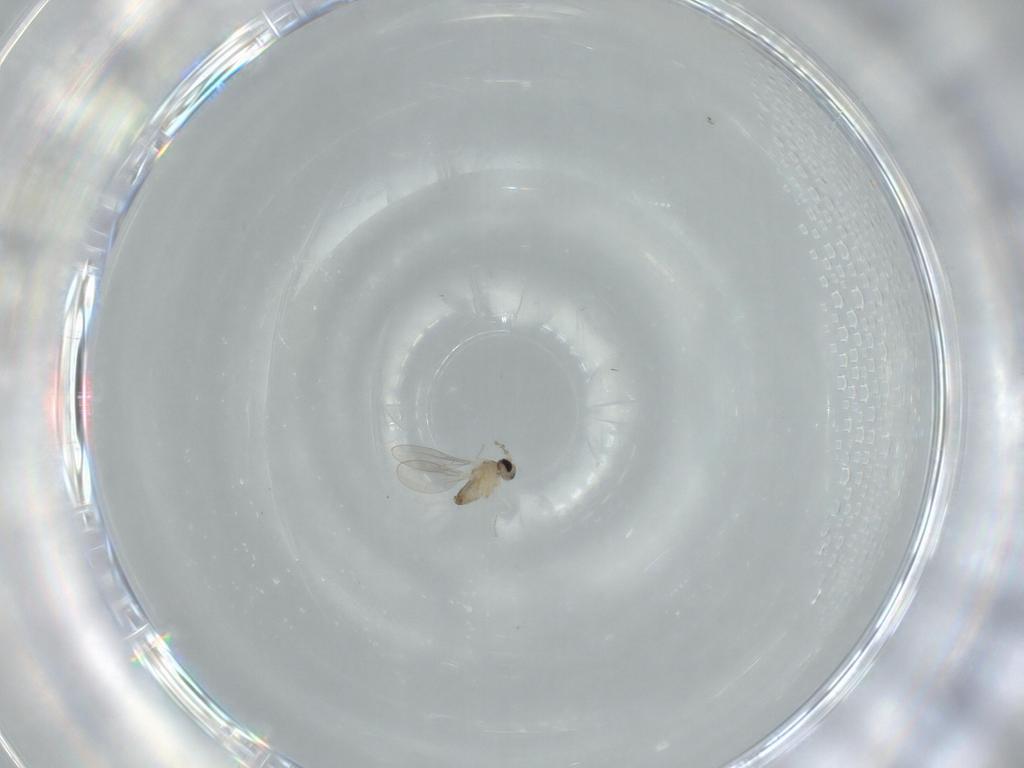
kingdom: Animalia
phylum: Arthropoda
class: Insecta
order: Diptera
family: Cecidomyiidae
